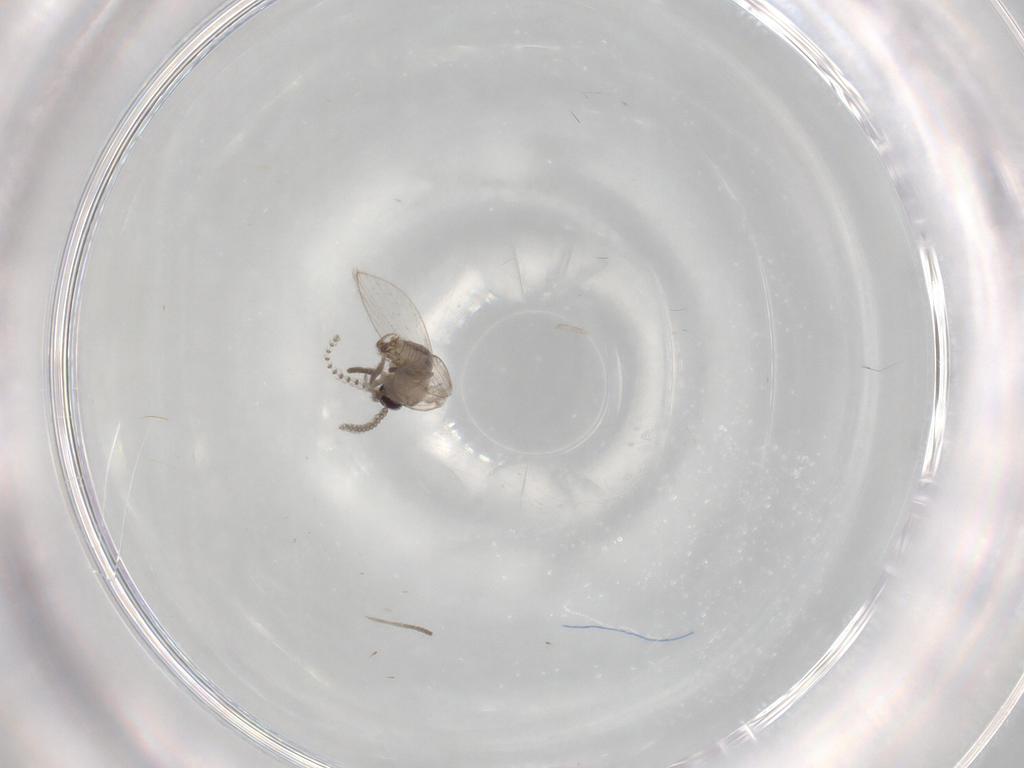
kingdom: Animalia
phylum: Arthropoda
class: Insecta
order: Diptera
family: Psychodidae
